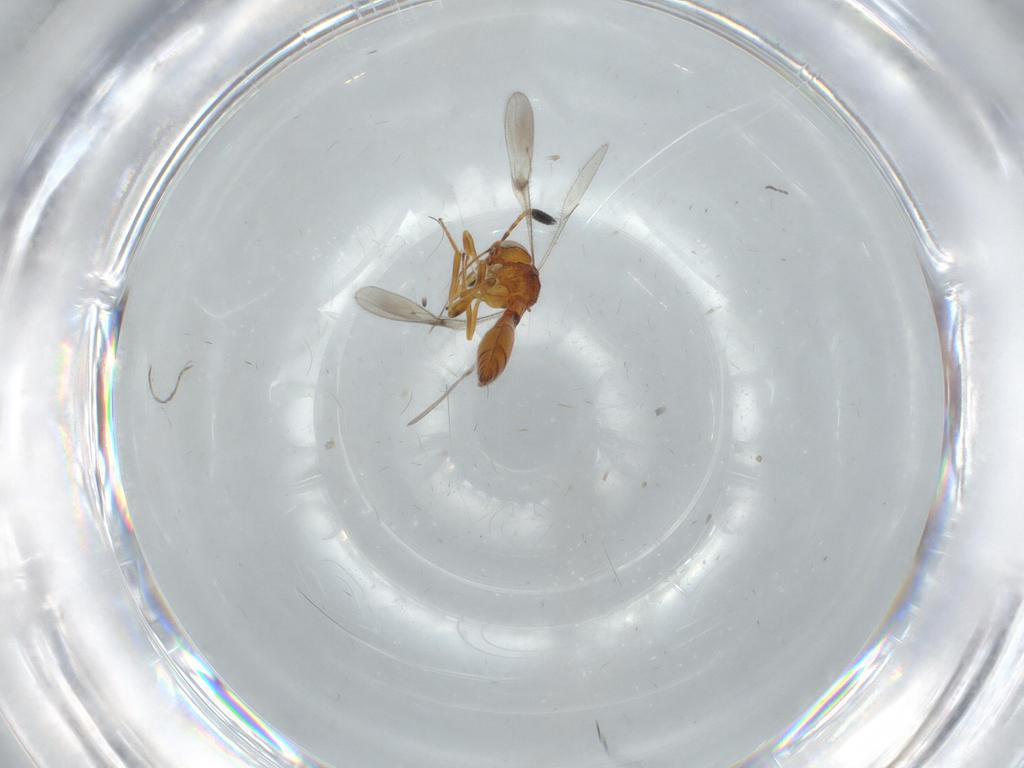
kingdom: Animalia
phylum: Arthropoda
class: Insecta
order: Hymenoptera
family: Scelionidae
